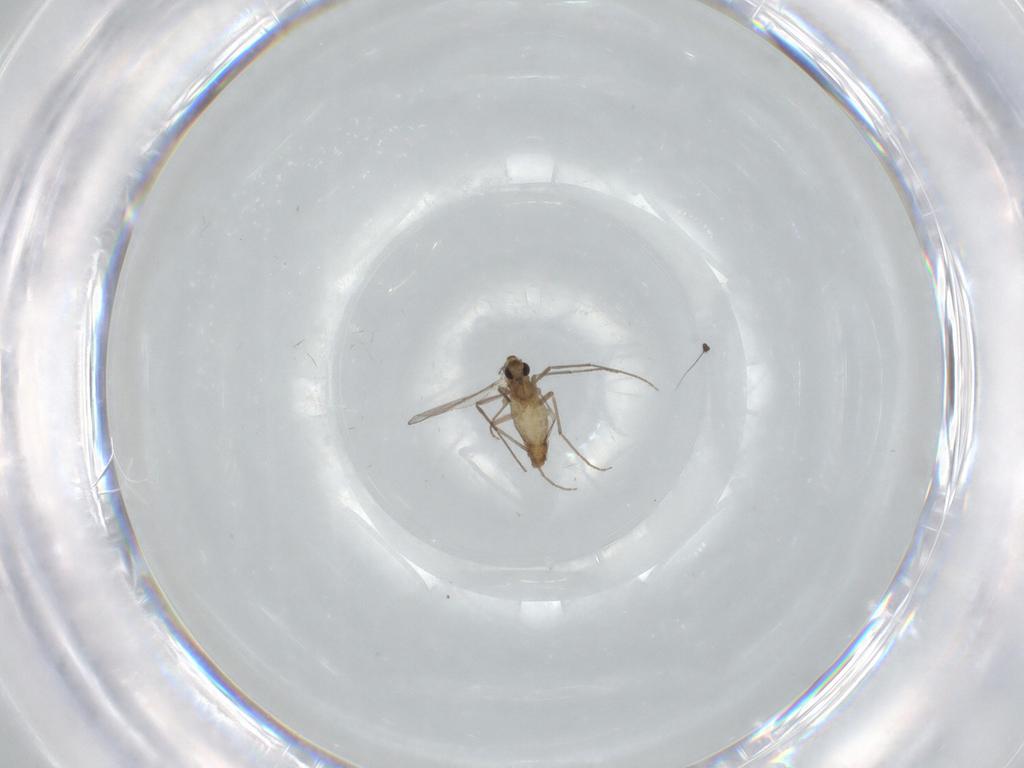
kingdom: Animalia
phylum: Arthropoda
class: Insecta
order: Diptera
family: Chironomidae
